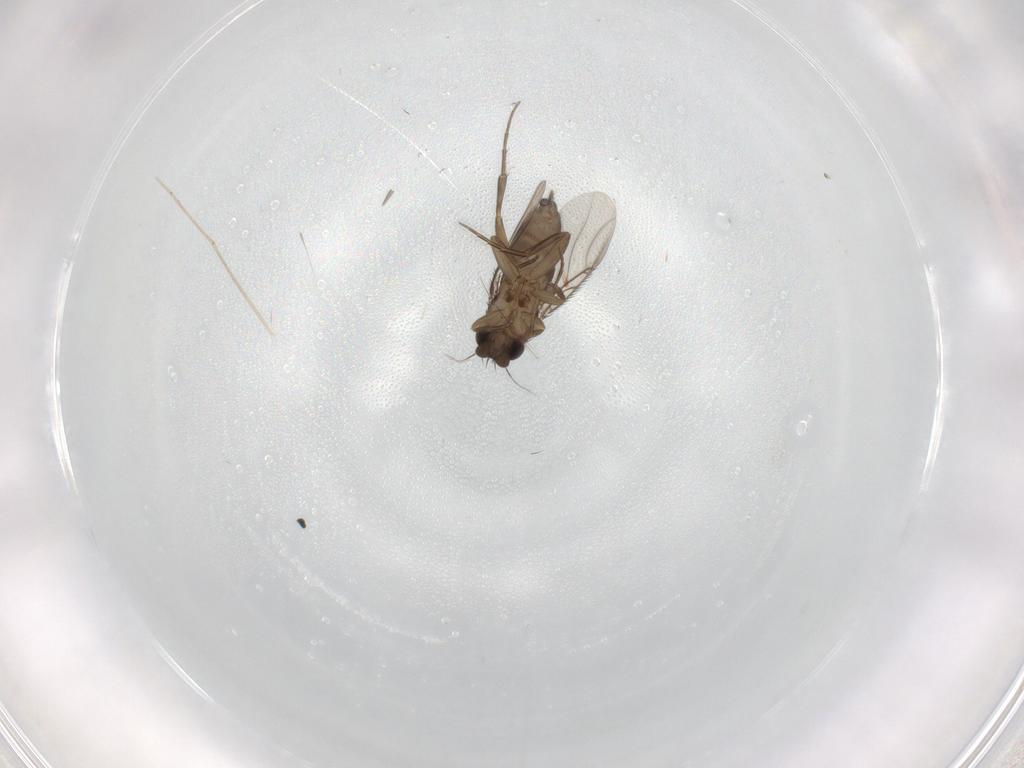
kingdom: Animalia
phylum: Arthropoda
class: Insecta
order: Diptera
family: Phoridae
